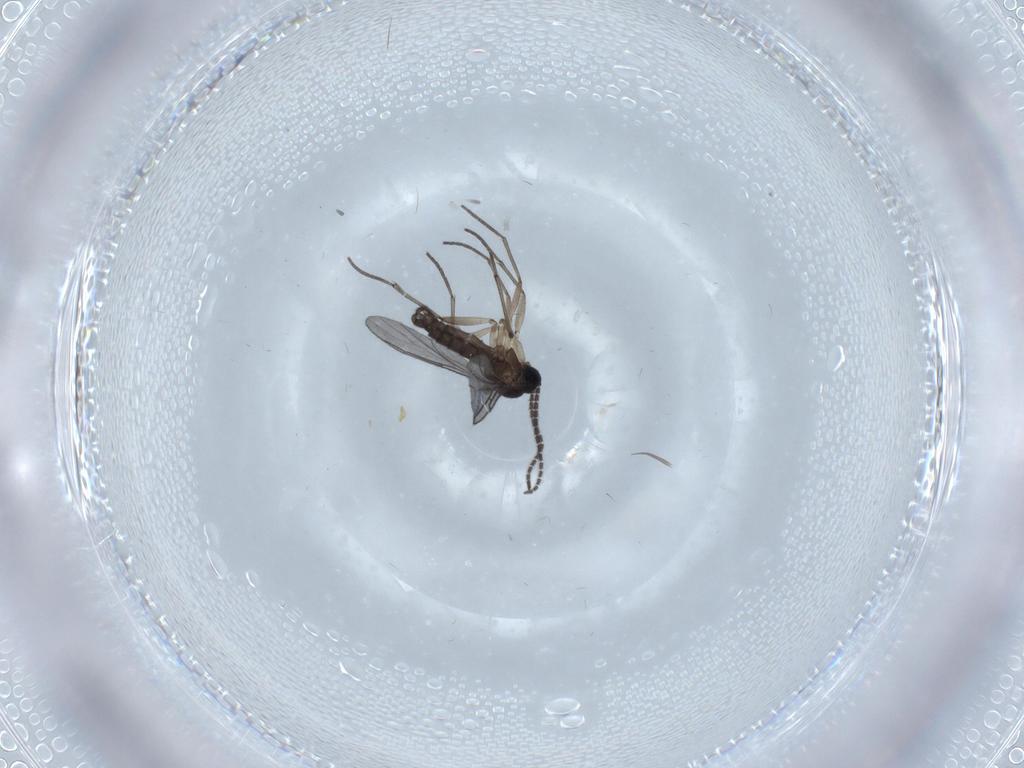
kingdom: Animalia
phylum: Arthropoda
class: Insecta
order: Diptera
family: Sciaridae
